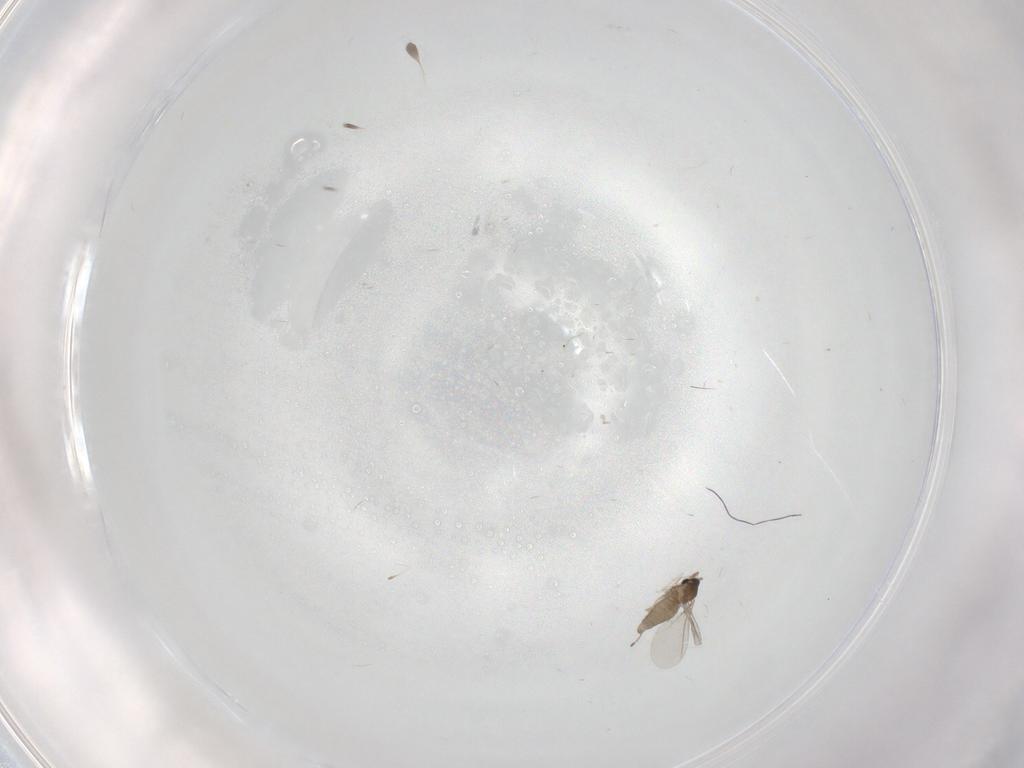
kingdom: Animalia
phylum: Arthropoda
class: Insecta
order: Diptera
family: Cecidomyiidae
